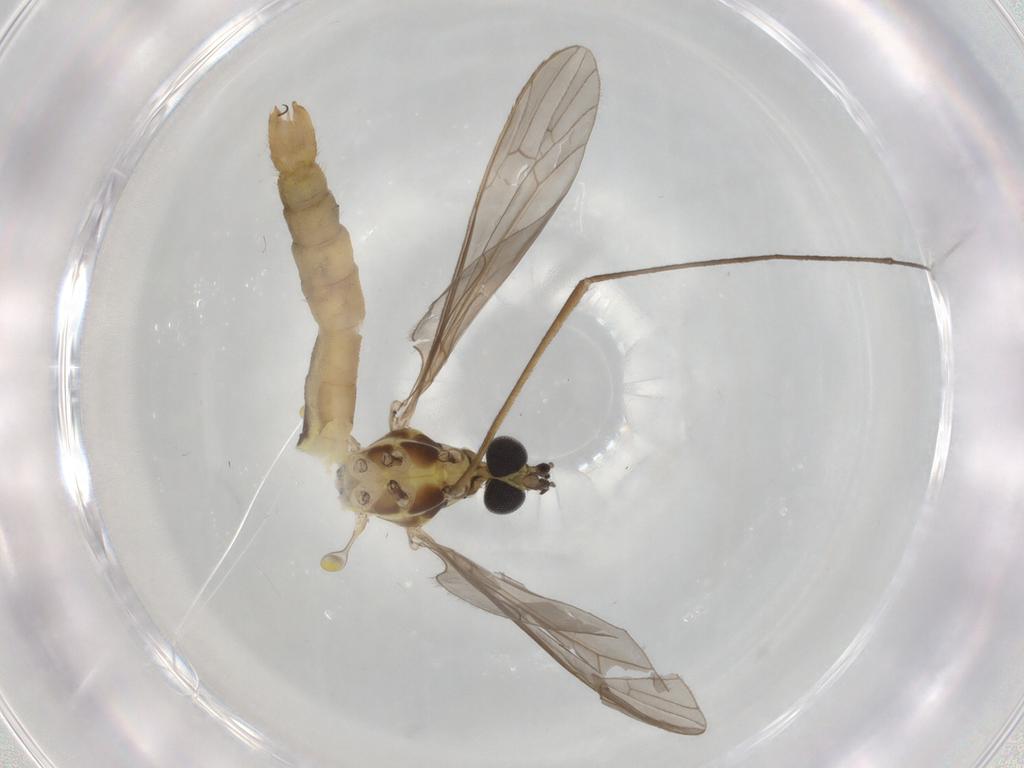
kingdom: Animalia
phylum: Arthropoda
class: Insecta
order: Diptera
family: Limoniidae
